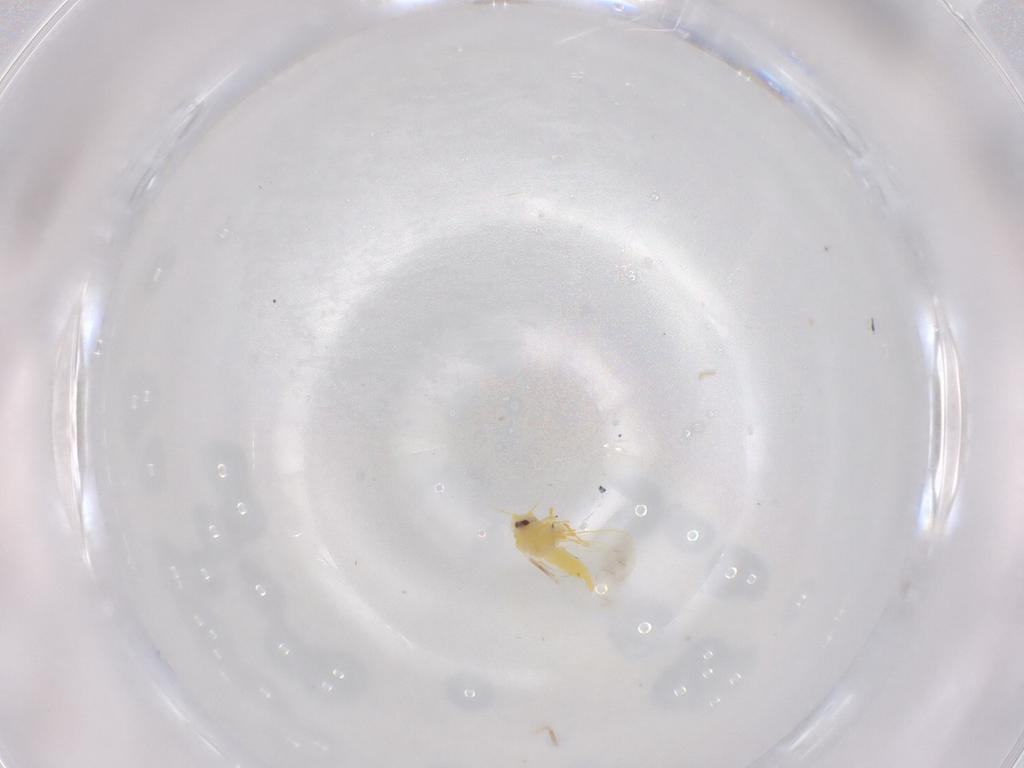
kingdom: Animalia
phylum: Arthropoda
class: Insecta
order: Hemiptera
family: Aleyrodidae
